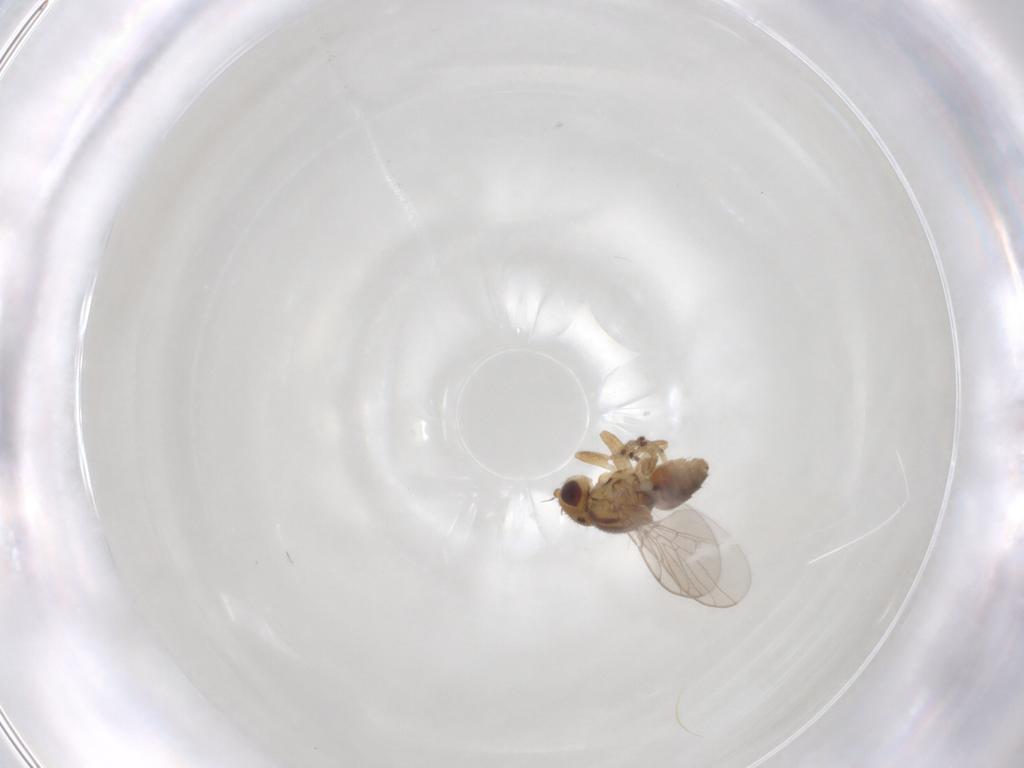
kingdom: Animalia
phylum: Arthropoda
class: Insecta
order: Diptera
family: Chloropidae
